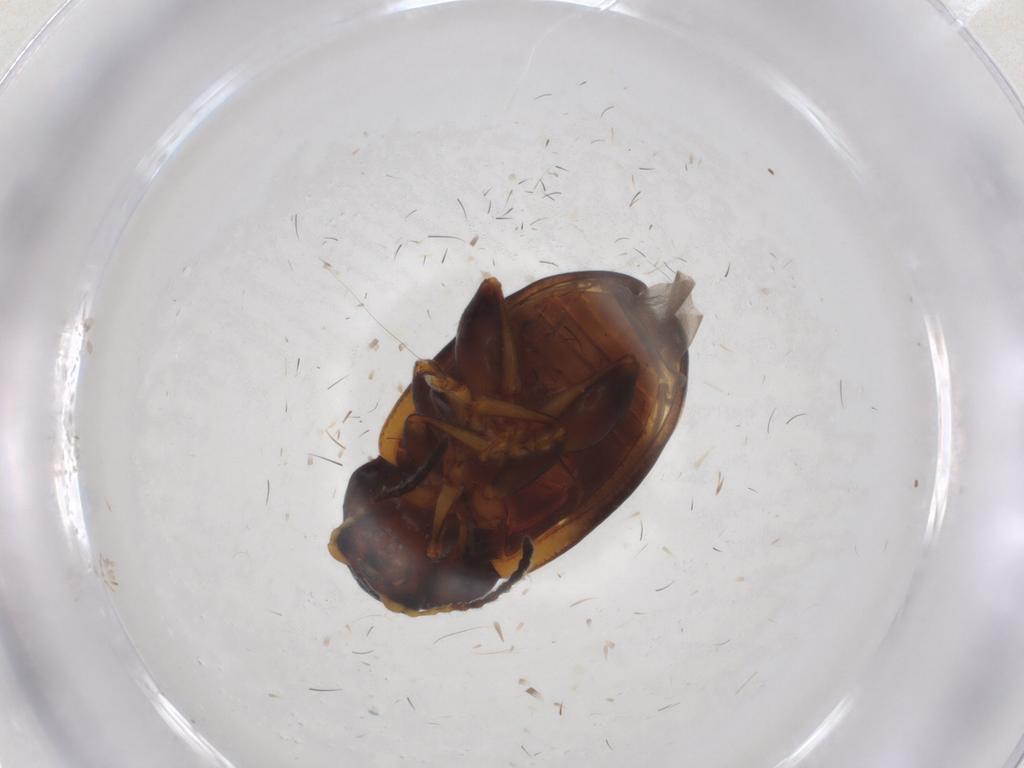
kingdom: Animalia
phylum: Arthropoda
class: Insecta
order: Coleoptera
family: Chrysomelidae
